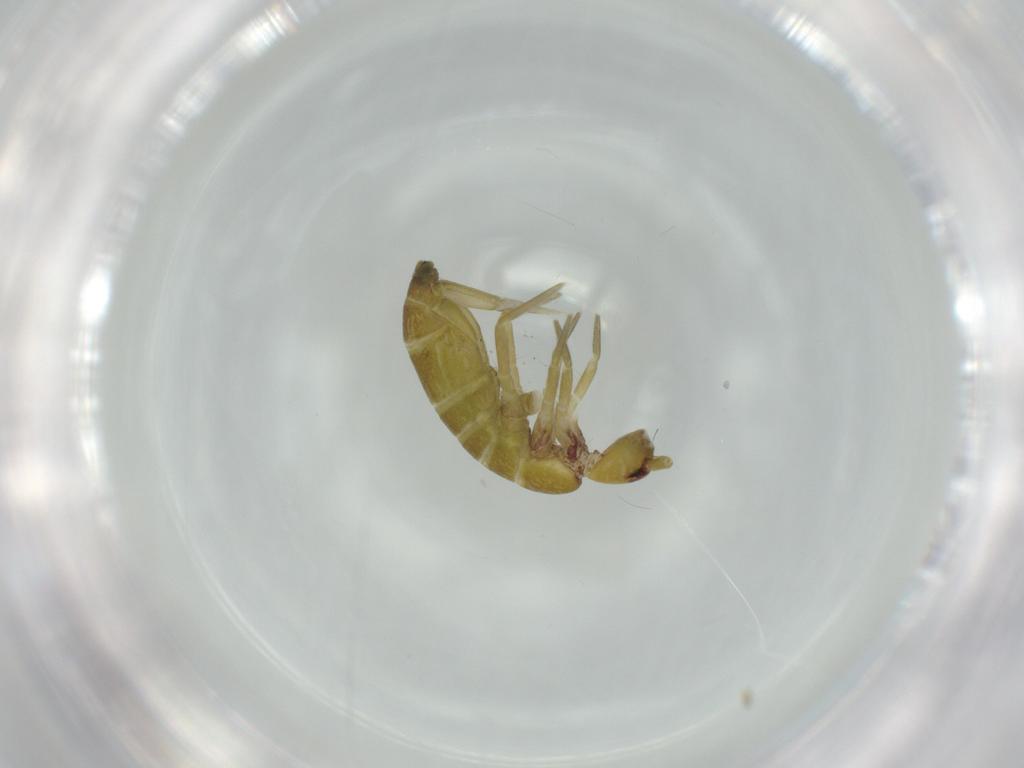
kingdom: Animalia
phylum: Arthropoda
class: Collembola
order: Entomobryomorpha
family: Tomoceridae
